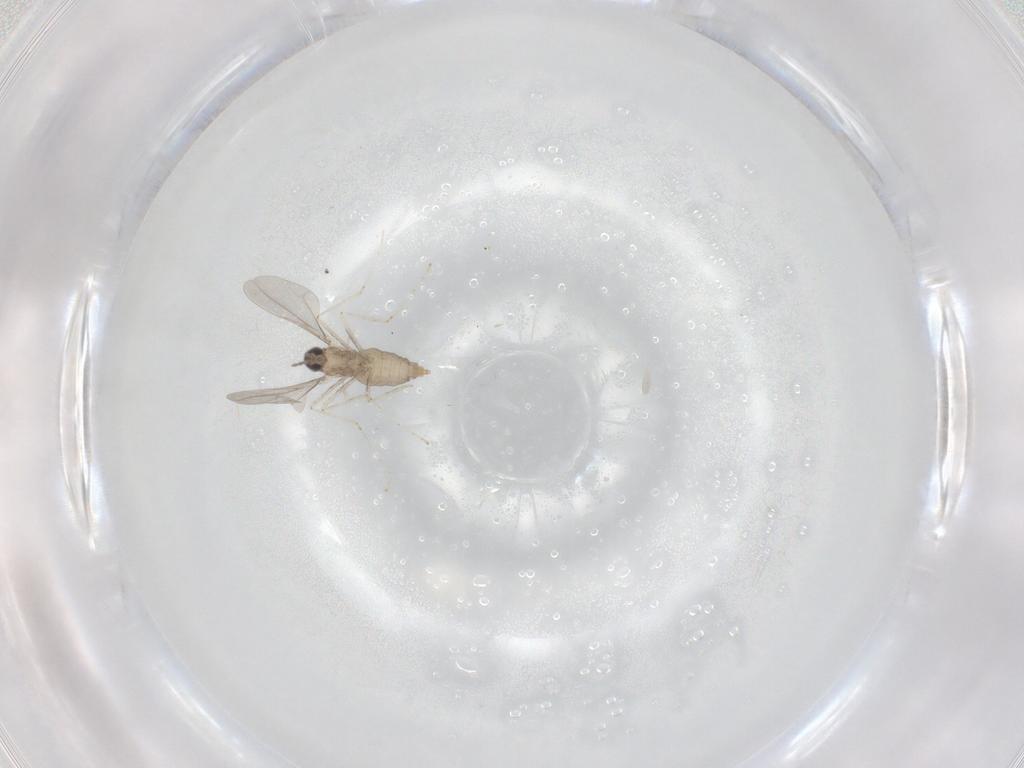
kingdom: Animalia
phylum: Arthropoda
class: Insecta
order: Diptera
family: Cecidomyiidae
